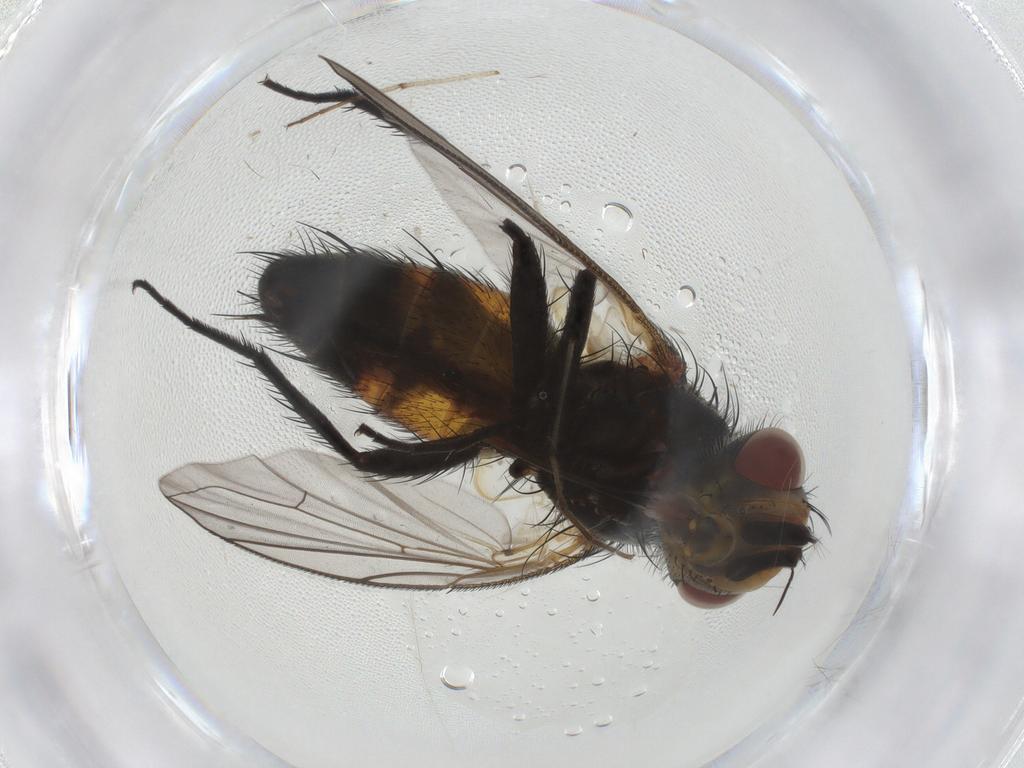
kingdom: Animalia
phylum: Arthropoda
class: Insecta
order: Diptera
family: Tachinidae
